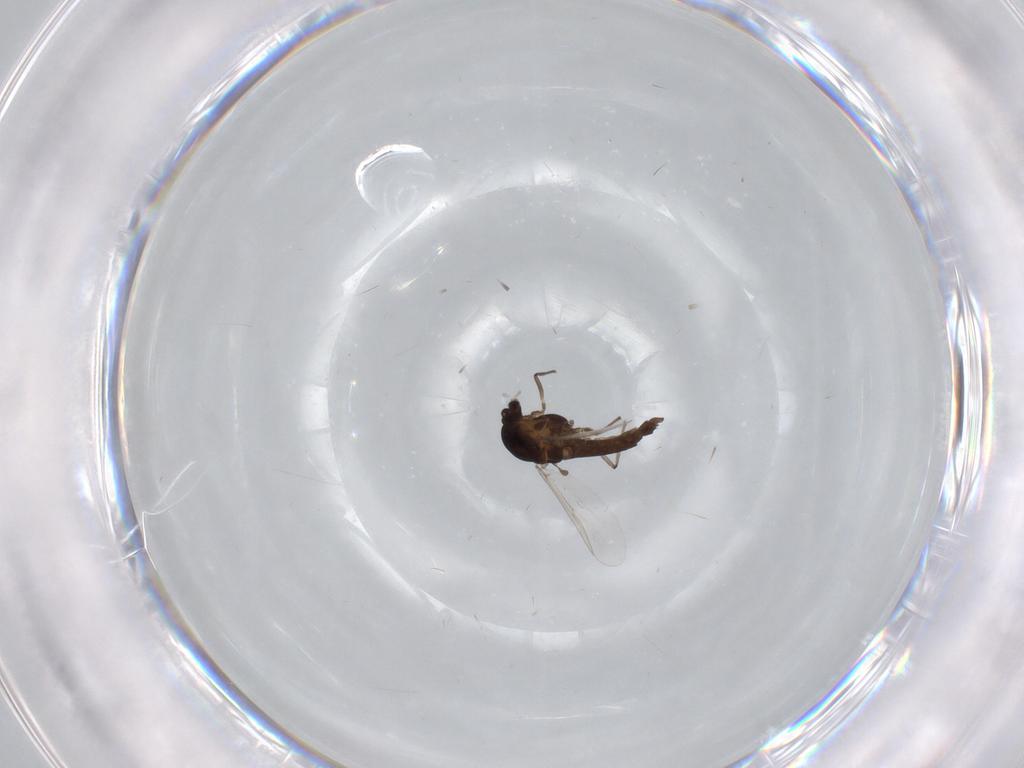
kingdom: Animalia
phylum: Arthropoda
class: Insecta
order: Diptera
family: Chironomidae
